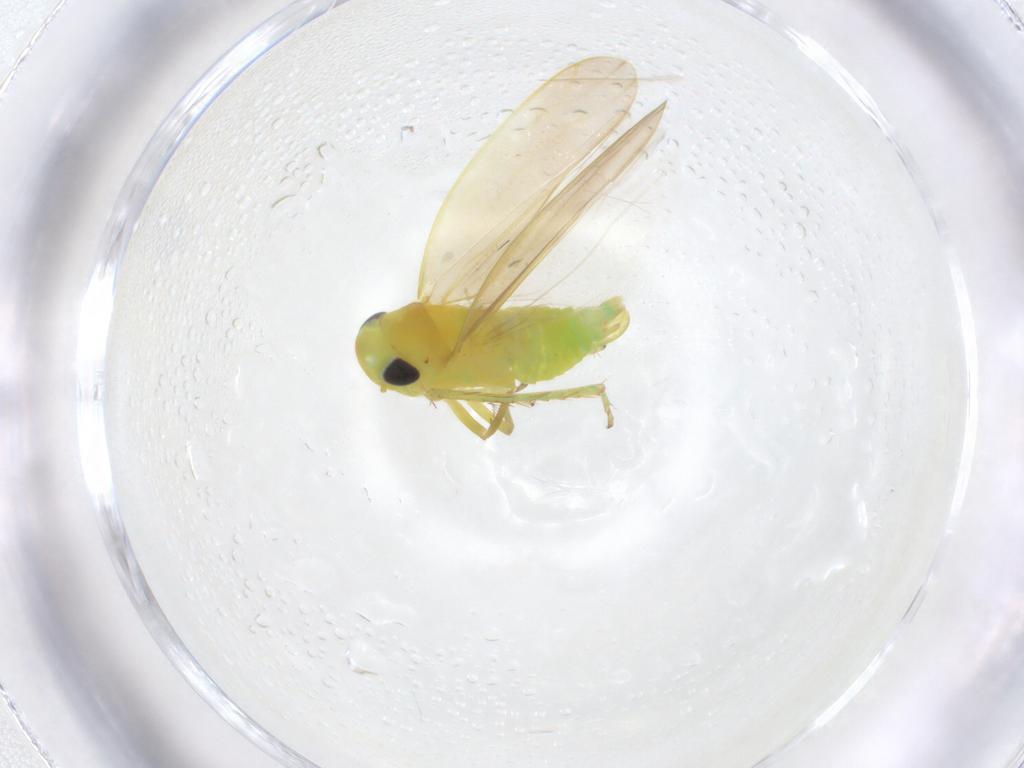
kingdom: Animalia
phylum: Arthropoda
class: Insecta
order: Hemiptera
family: Cicadellidae
